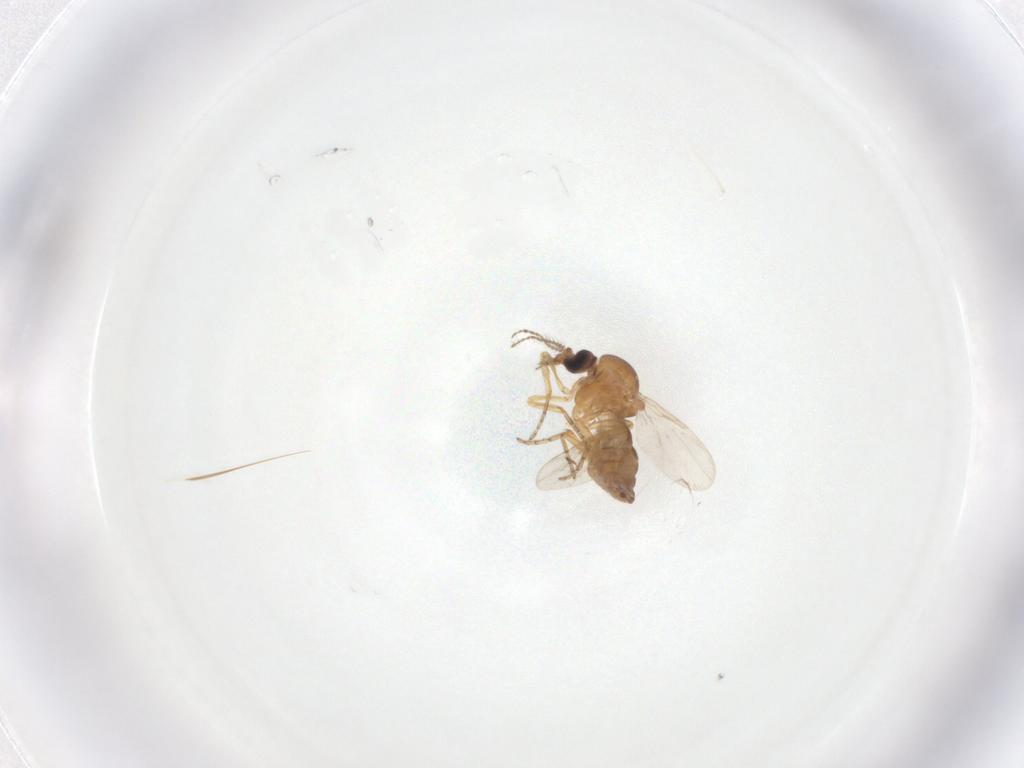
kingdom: Animalia
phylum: Arthropoda
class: Insecta
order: Diptera
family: Cecidomyiidae
